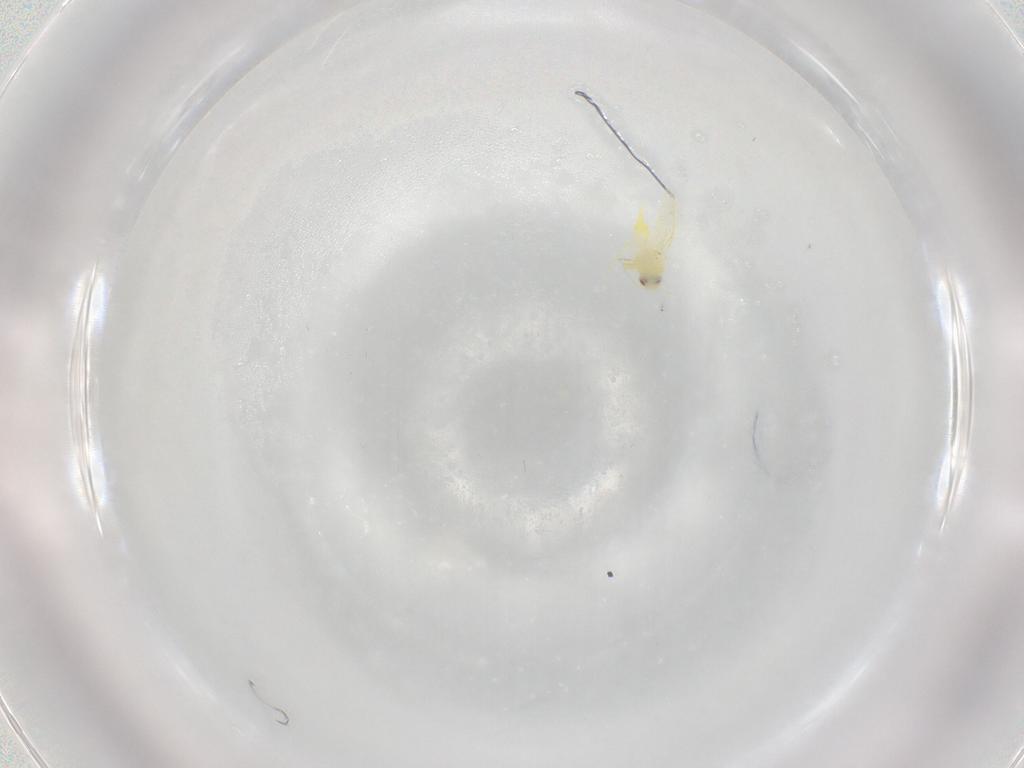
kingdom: Animalia
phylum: Arthropoda
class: Insecta
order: Hemiptera
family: Aleyrodidae
